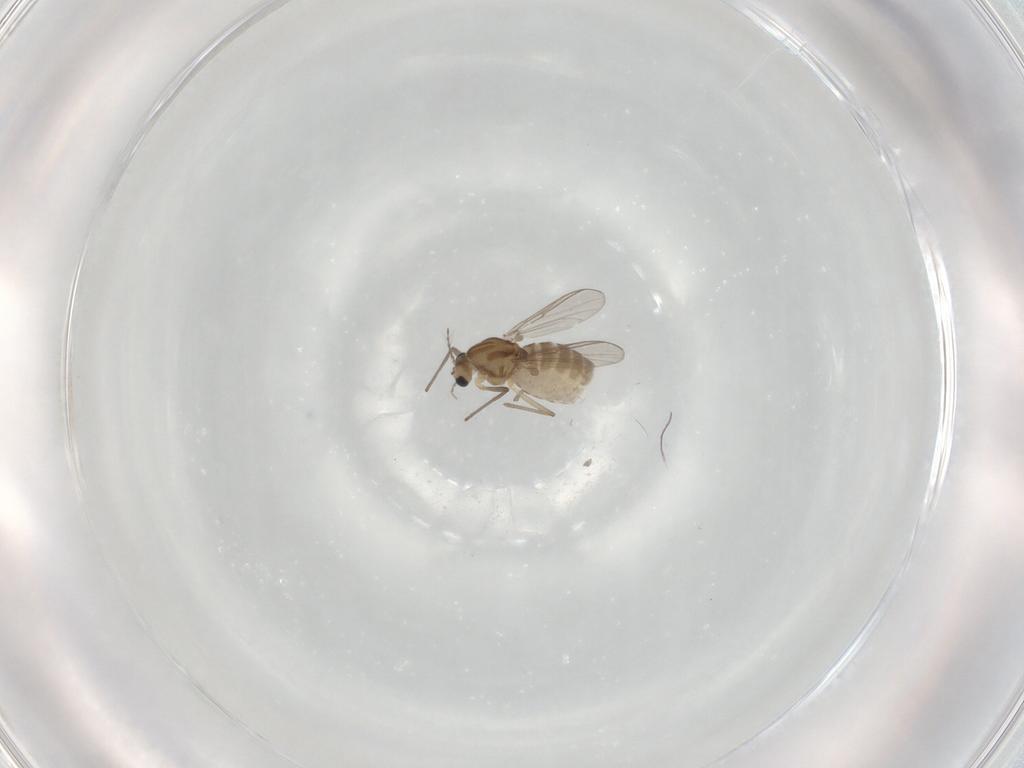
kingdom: Animalia
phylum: Arthropoda
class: Insecta
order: Diptera
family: Chironomidae
